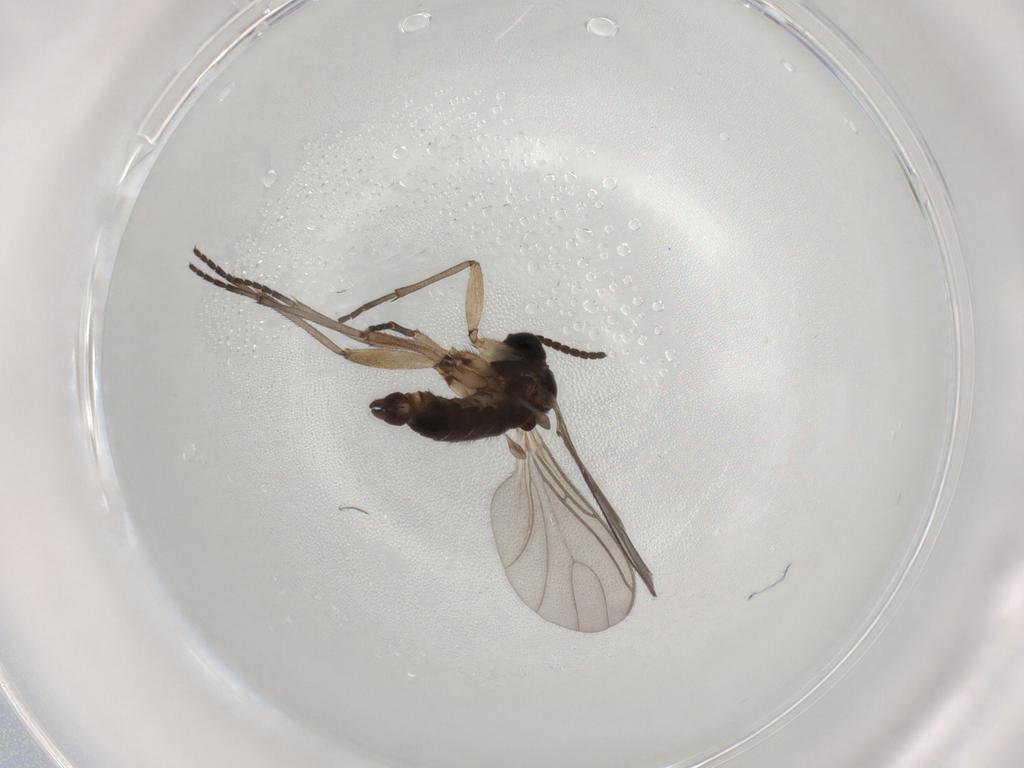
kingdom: Animalia
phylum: Arthropoda
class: Insecta
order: Diptera
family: Sciaridae
